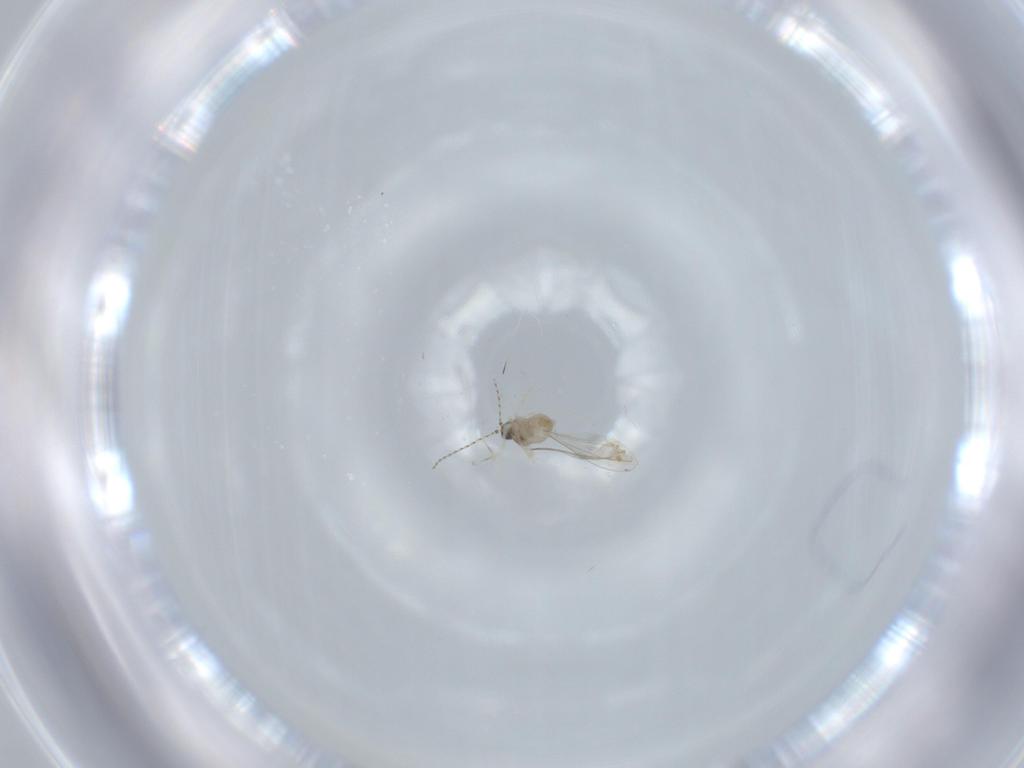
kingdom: Animalia
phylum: Arthropoda
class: Insecta
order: Diptera
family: Cecidomyiidae
